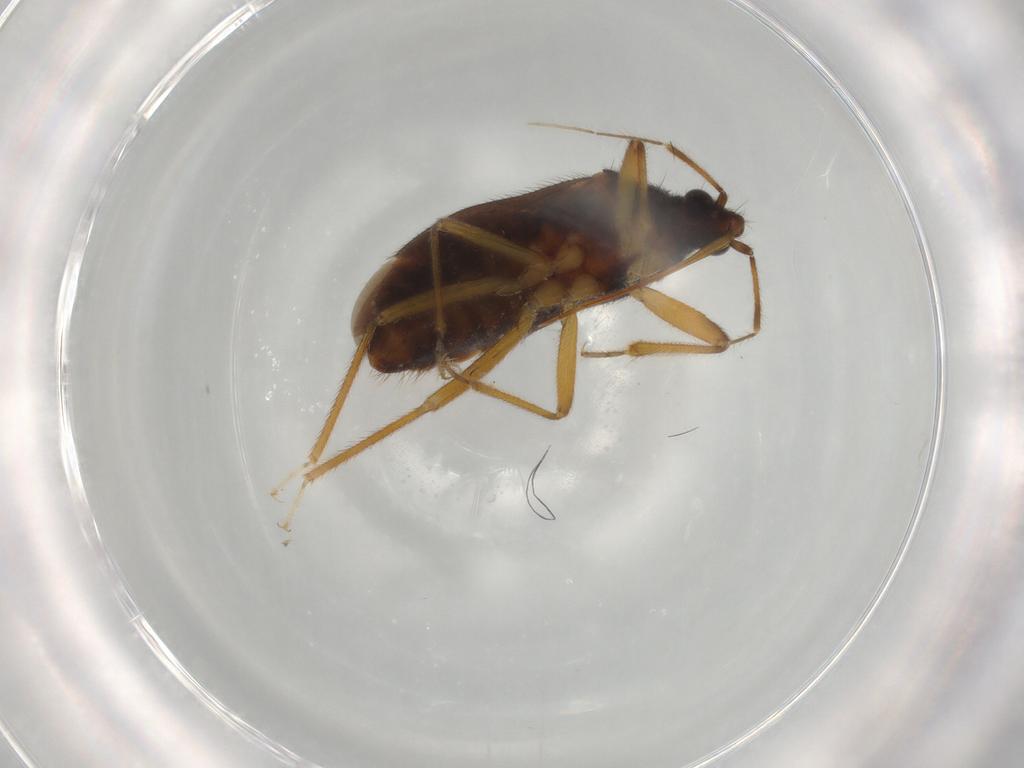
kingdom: Animalia
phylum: Arthropoda
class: Insecta
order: Hemiptera
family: Anthocoridae
